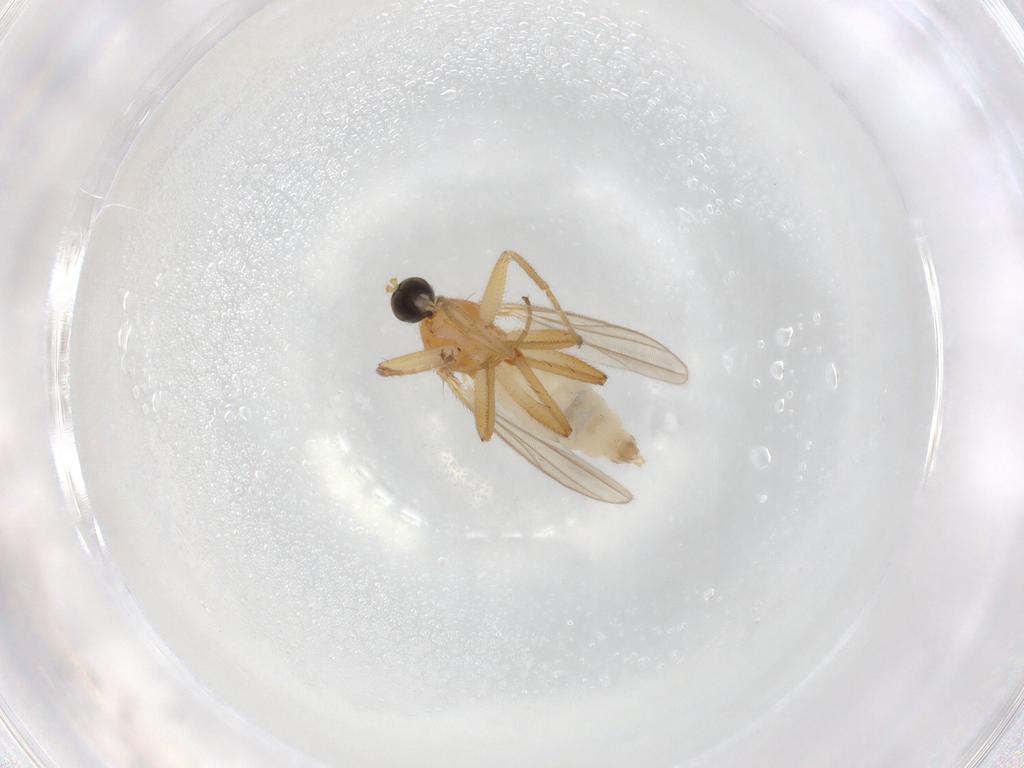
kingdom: Animalia
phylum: Arthropoda
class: Insecta
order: Diptera
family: Hybotidae
